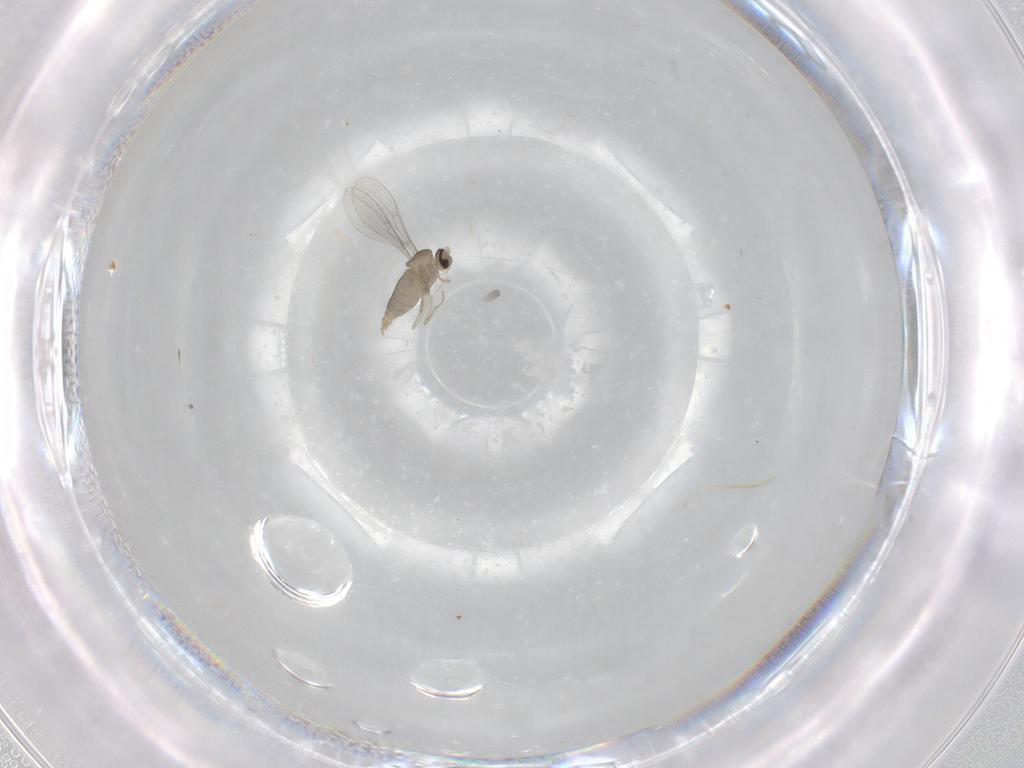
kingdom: Animalia
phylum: Arthropoda
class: Insecta
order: Diptera
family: Cecidomyiidae
